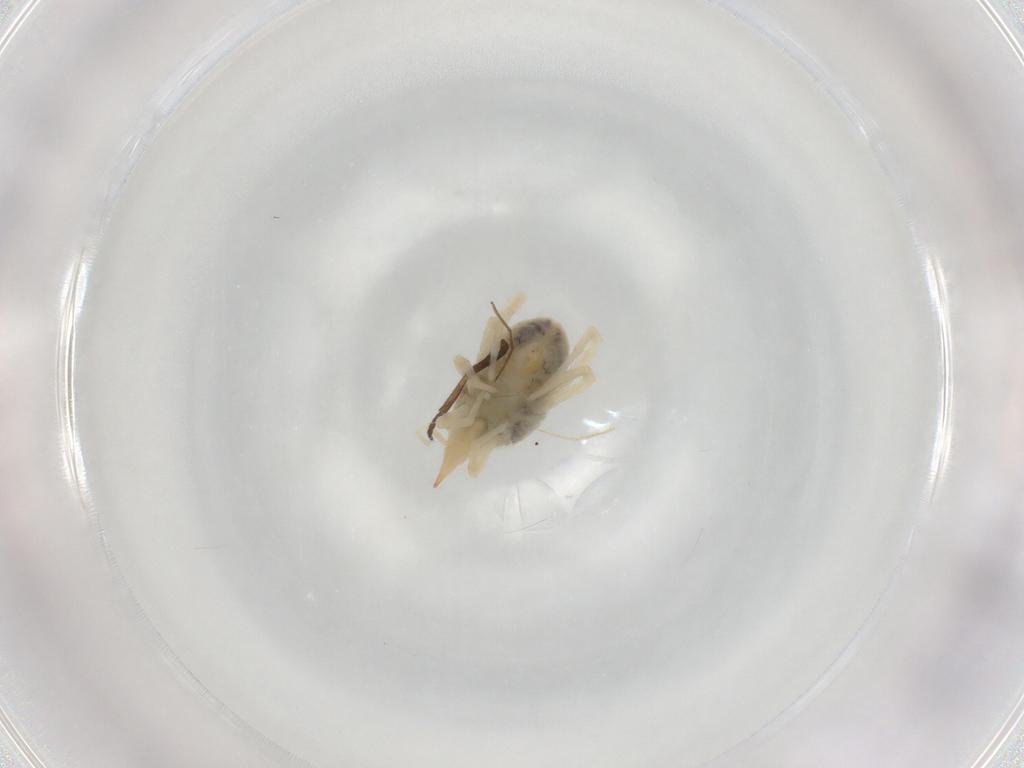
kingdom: Animalia
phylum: Arthropoda
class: Arachnida
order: Trombidiformes
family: Bdellidae
